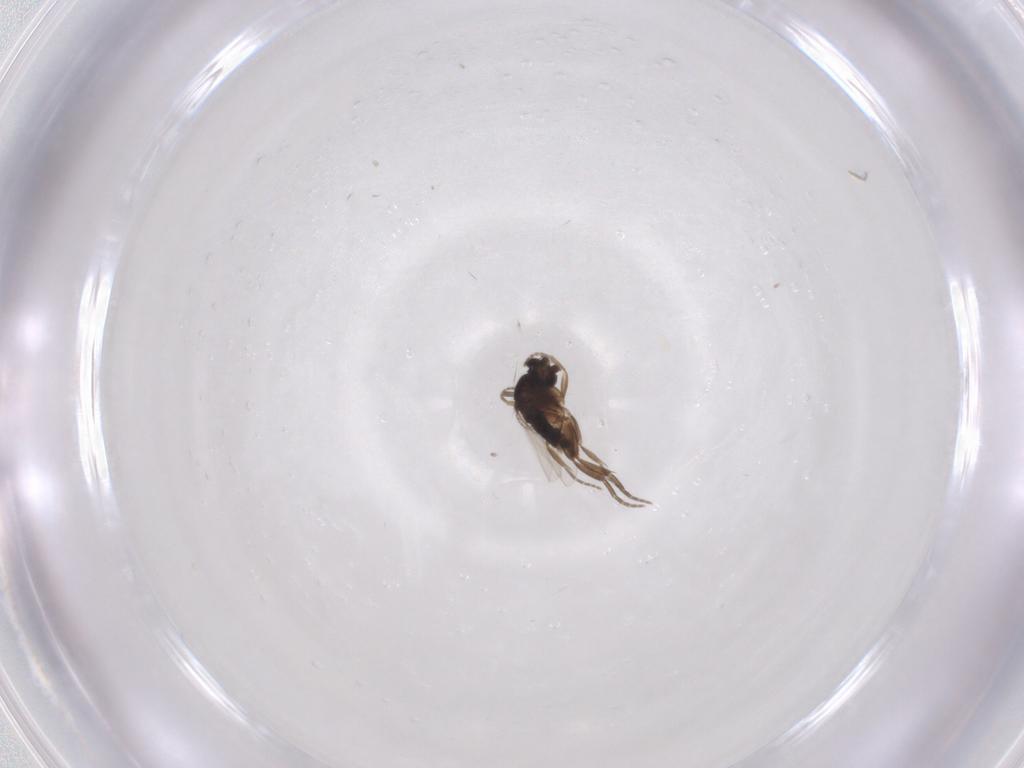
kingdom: Animalia
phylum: Arthropoda
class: Insecta
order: Diptera
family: Phoridae
